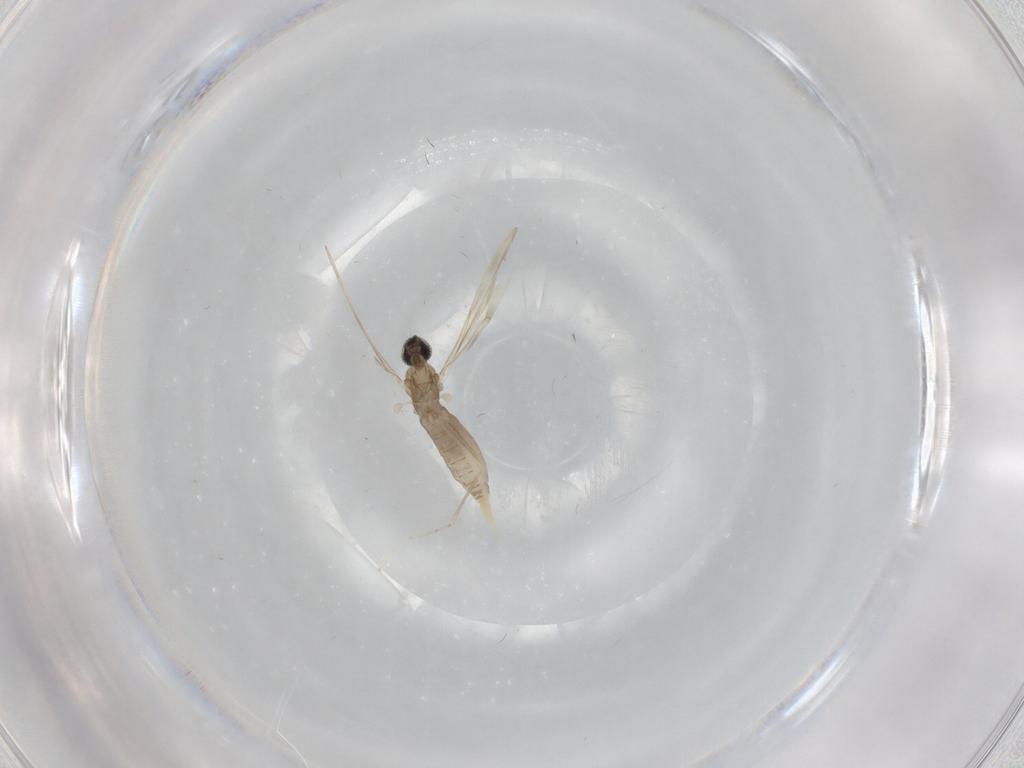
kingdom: Animalia
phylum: Arthropoda
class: Insecta
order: Diptera
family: Cecidomyiidae
